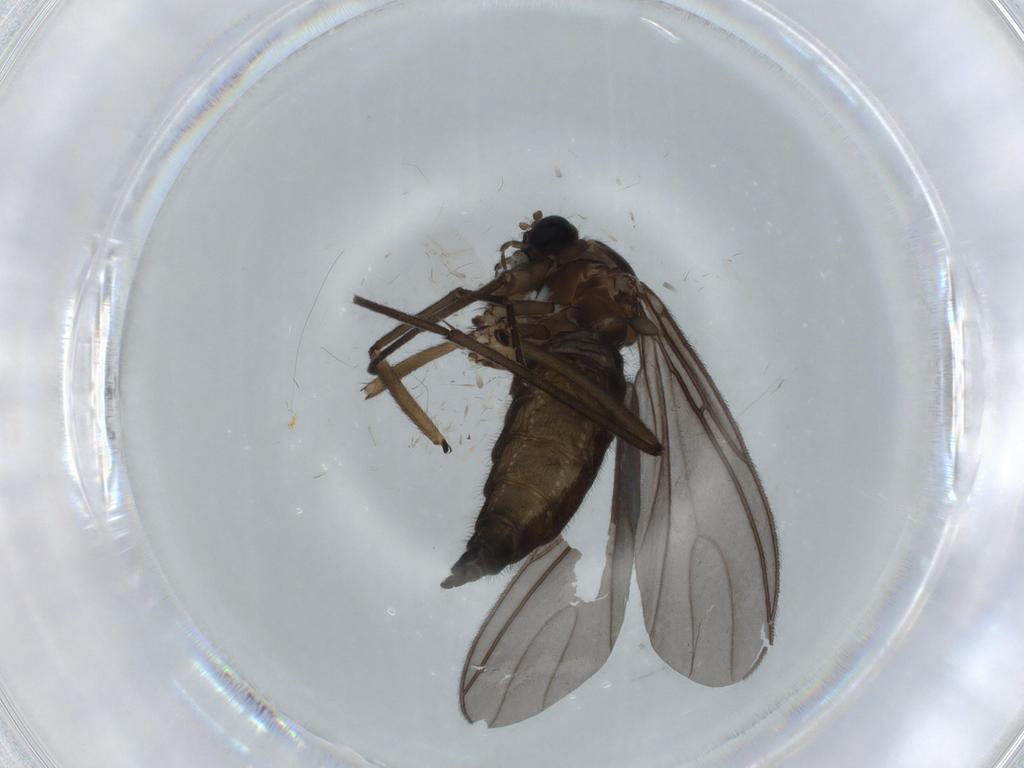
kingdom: Animalia
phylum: Arthropoda
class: Insecta
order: Diptera
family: Sciaridae
